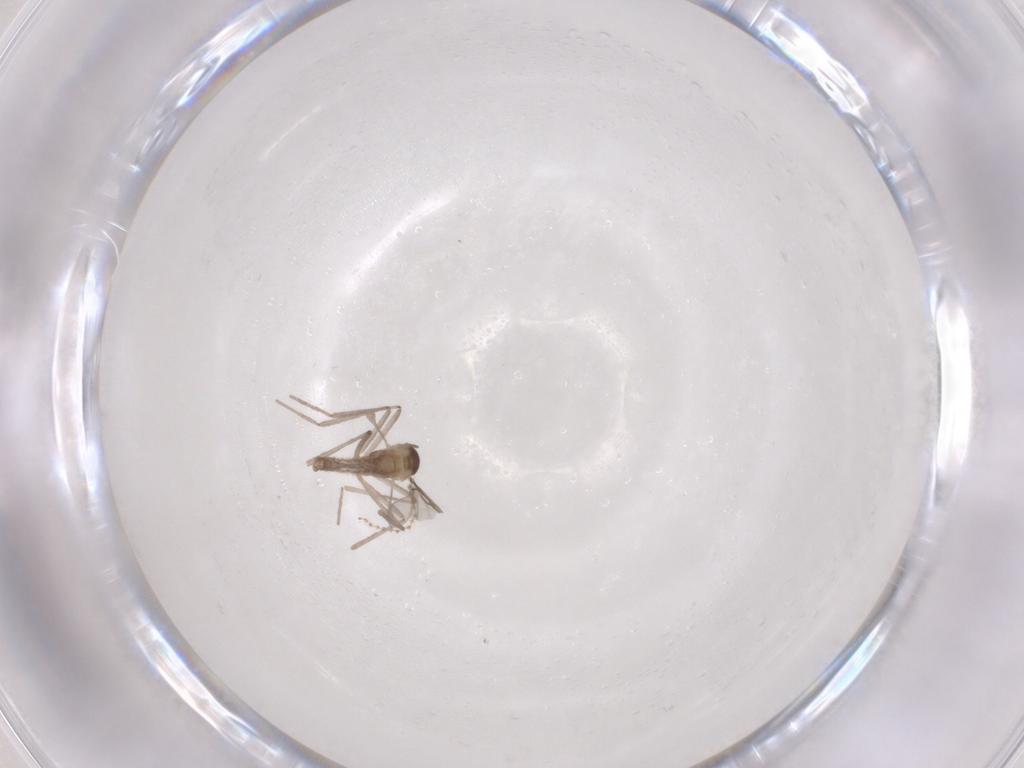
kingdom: Animalia
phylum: Arthropoda
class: Insecta
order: Diptera
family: Cecidomyiidae
